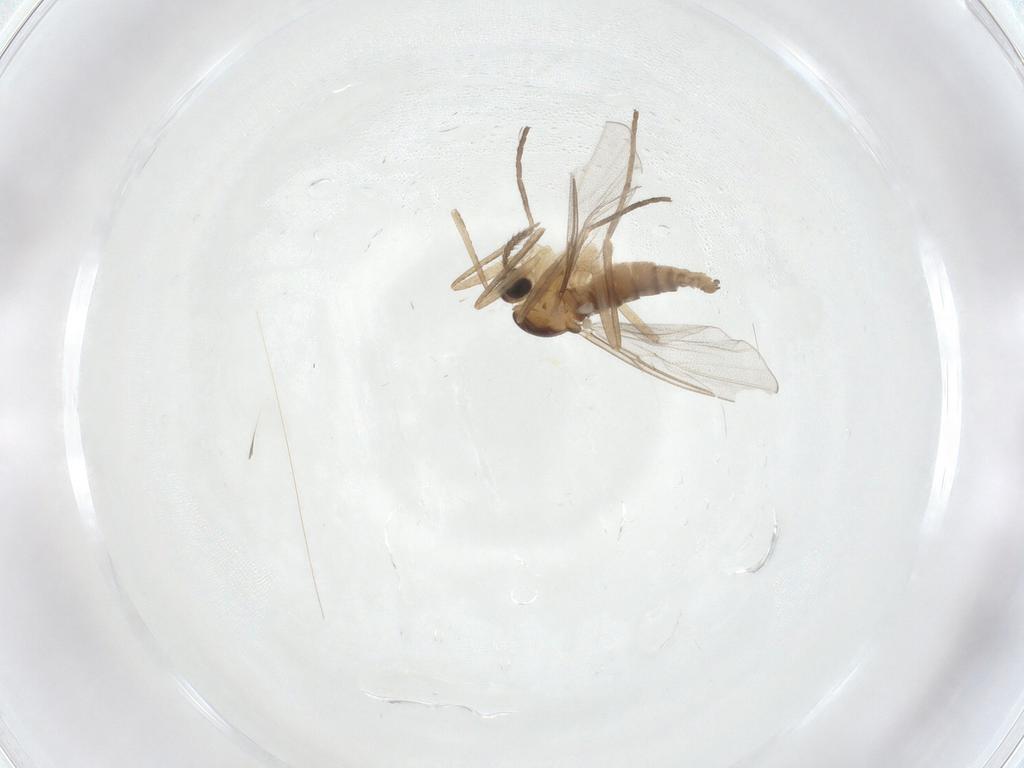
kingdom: Animalia
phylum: Arthropoda
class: Insecta
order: Diptera
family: Cecidomyiidae
